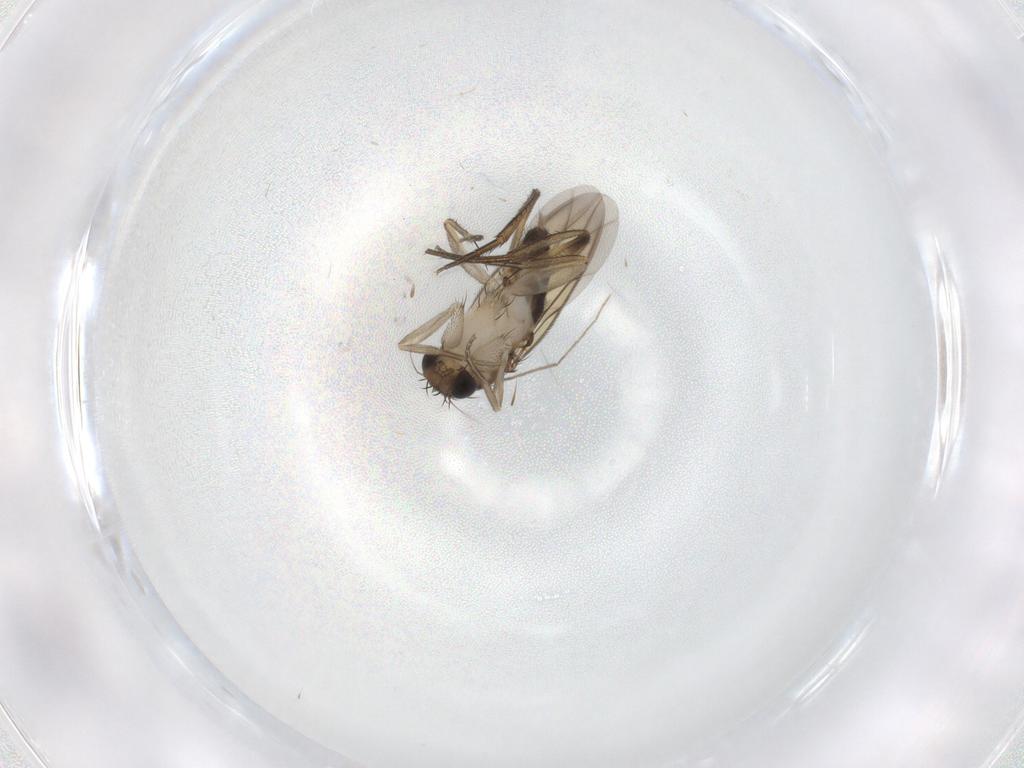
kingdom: Animalia
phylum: Arthropoda
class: Insecta
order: Diptera
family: Phoridae
